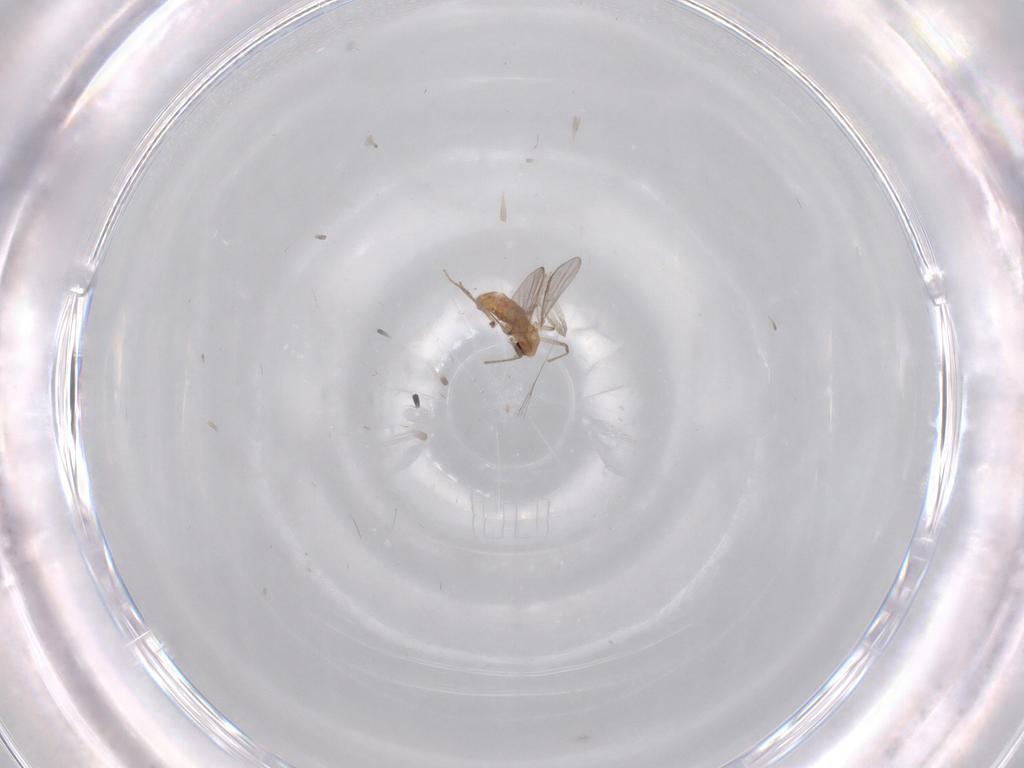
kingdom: Animalia
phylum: Arthropoda
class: Insecta
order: Diptera
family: Chironomidae
